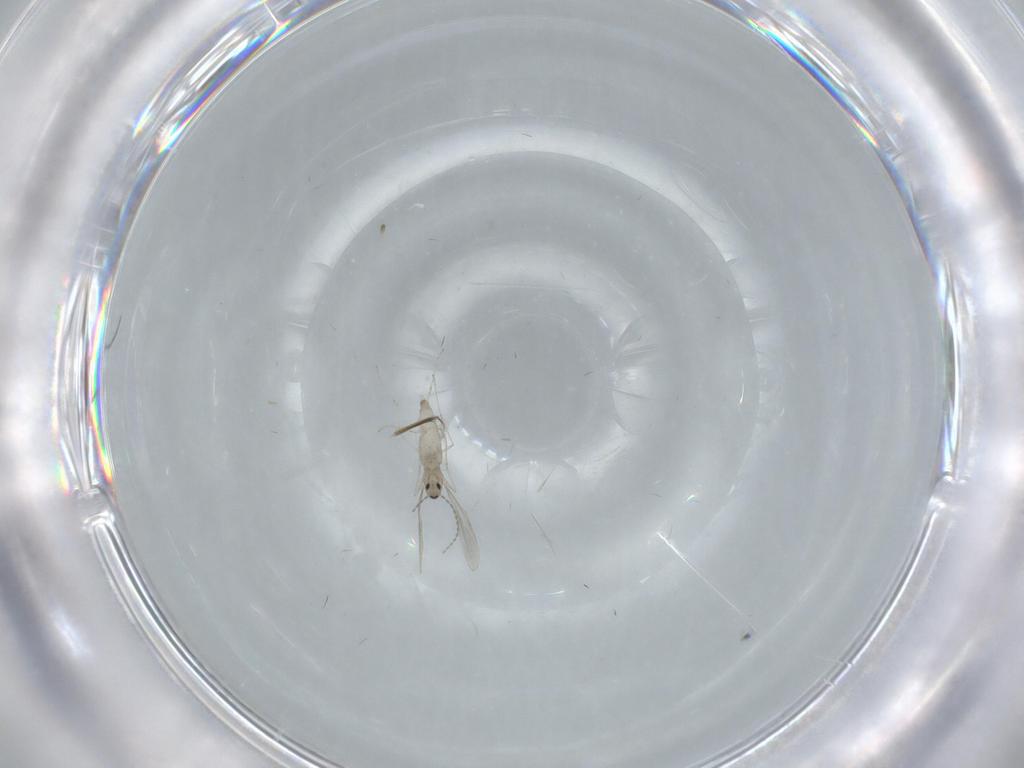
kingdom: Animalia
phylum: Arthropoda
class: Insecta
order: Diptera
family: Cecidomyiidae
